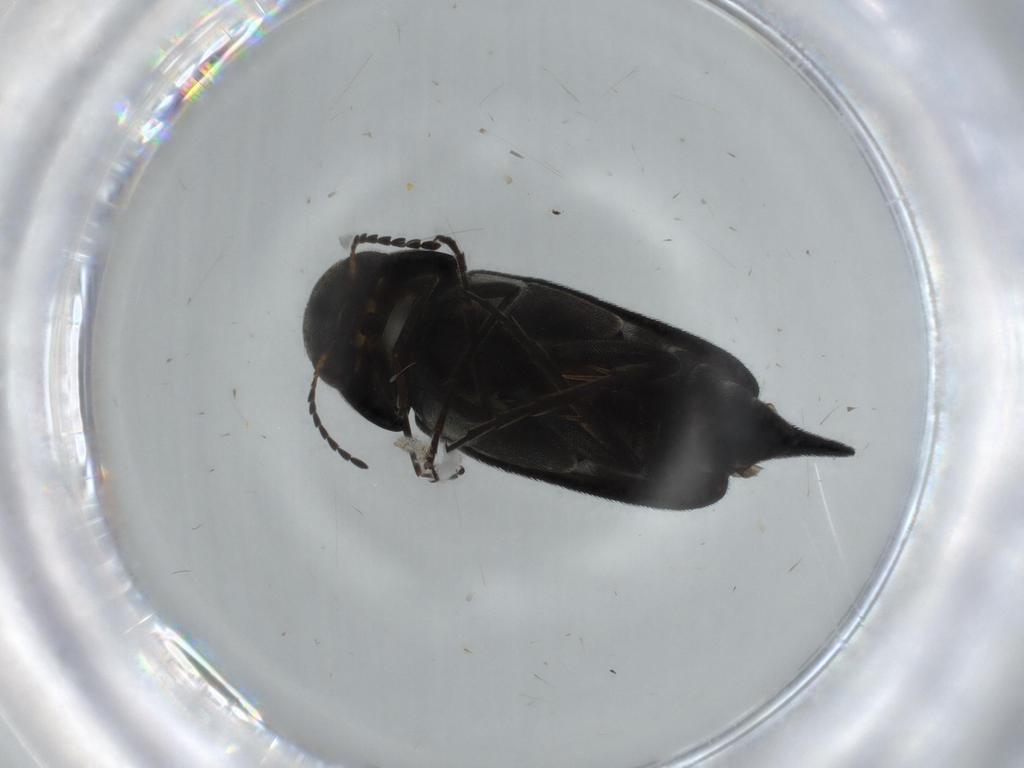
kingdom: Animalia
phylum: Arthropoda
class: Insecta
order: Coleoptera
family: Mordellidae
